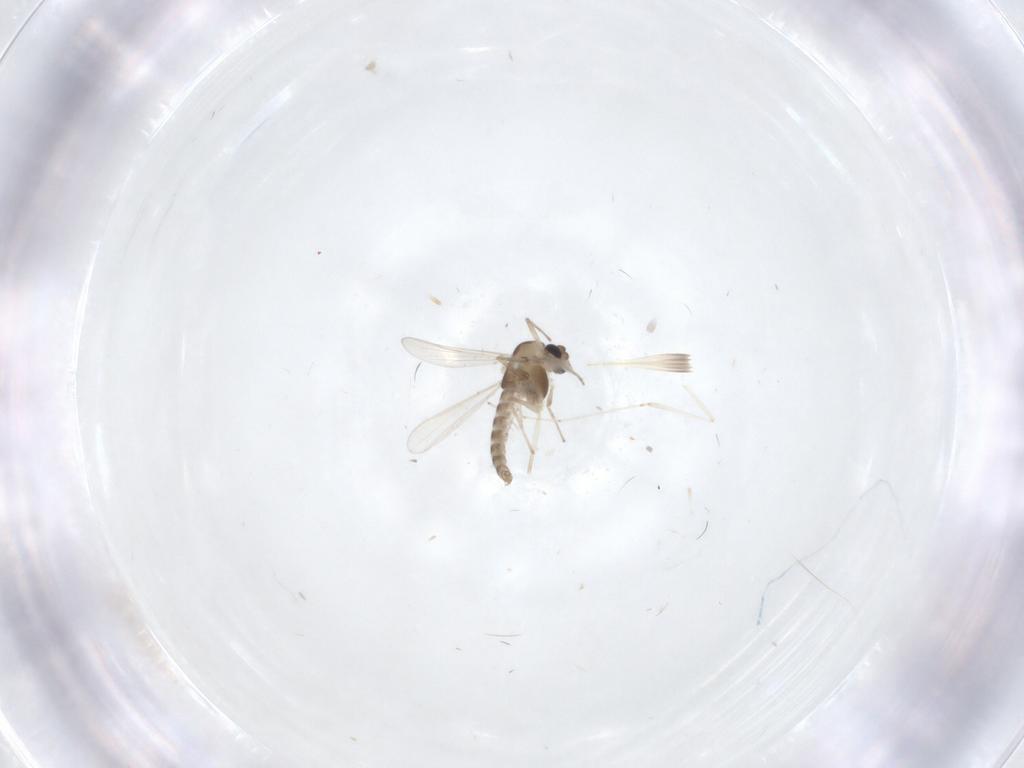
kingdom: Animalia
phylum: Arthropoda
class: Insecta
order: Diptera
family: Chironomidae
